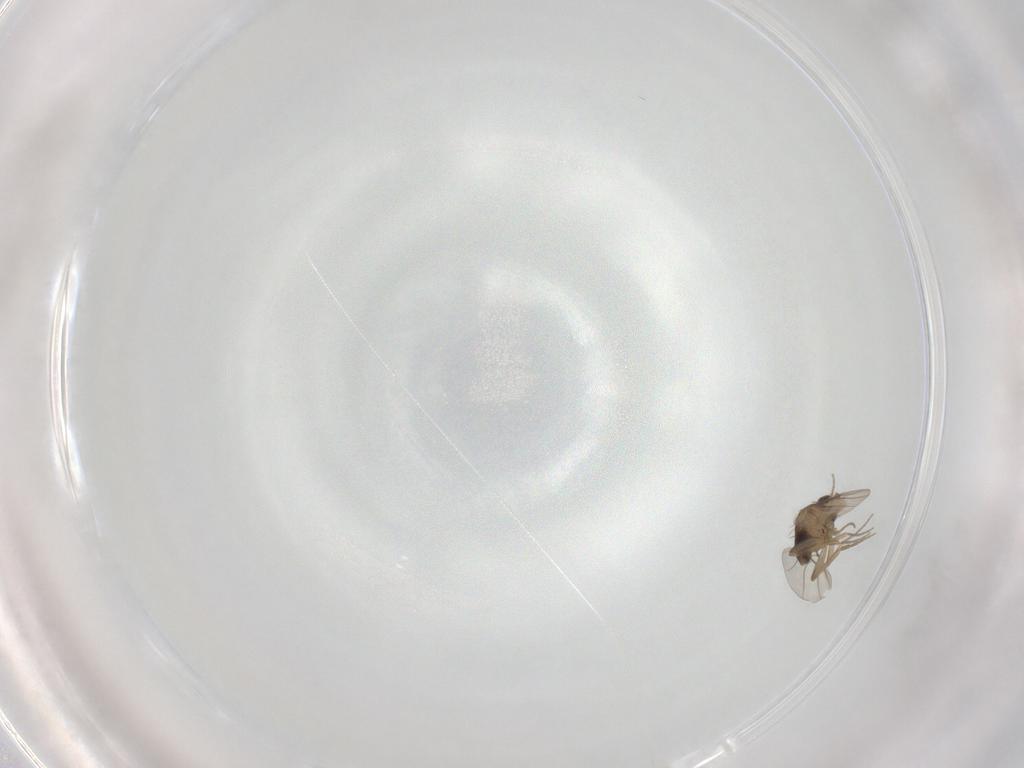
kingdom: Animalia
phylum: Arthropoda
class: Insecta
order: Diptera
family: Phoridae
